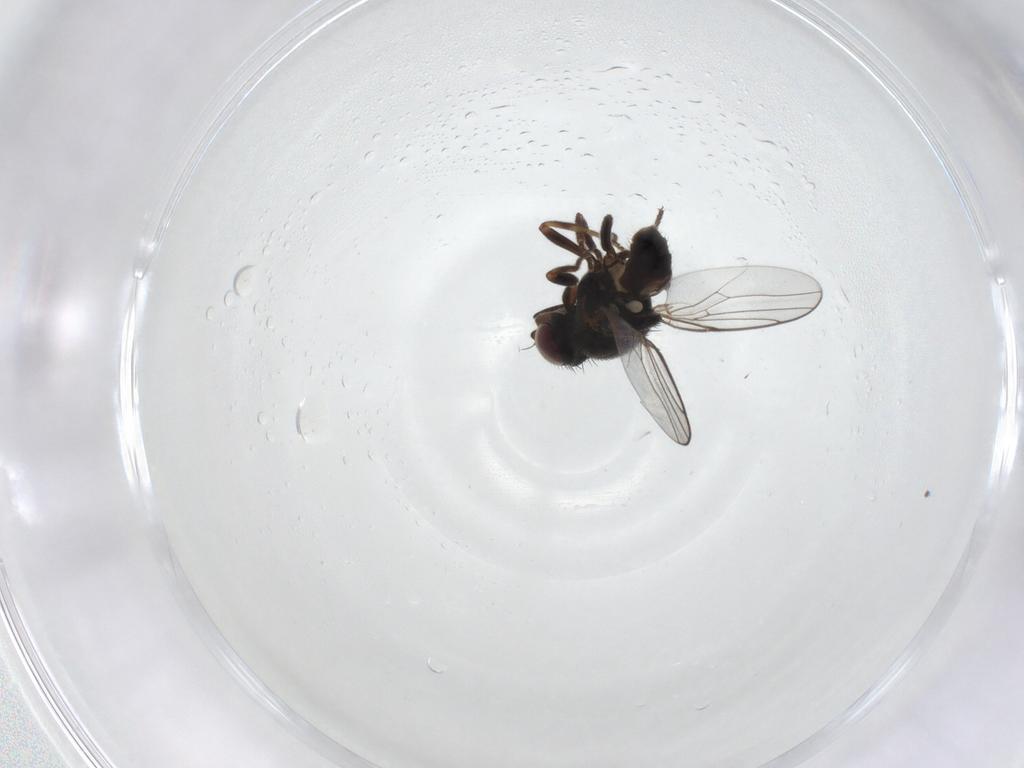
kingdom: Animalia
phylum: Arthropoda
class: Insecta
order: Diptera
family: Chloropidae
